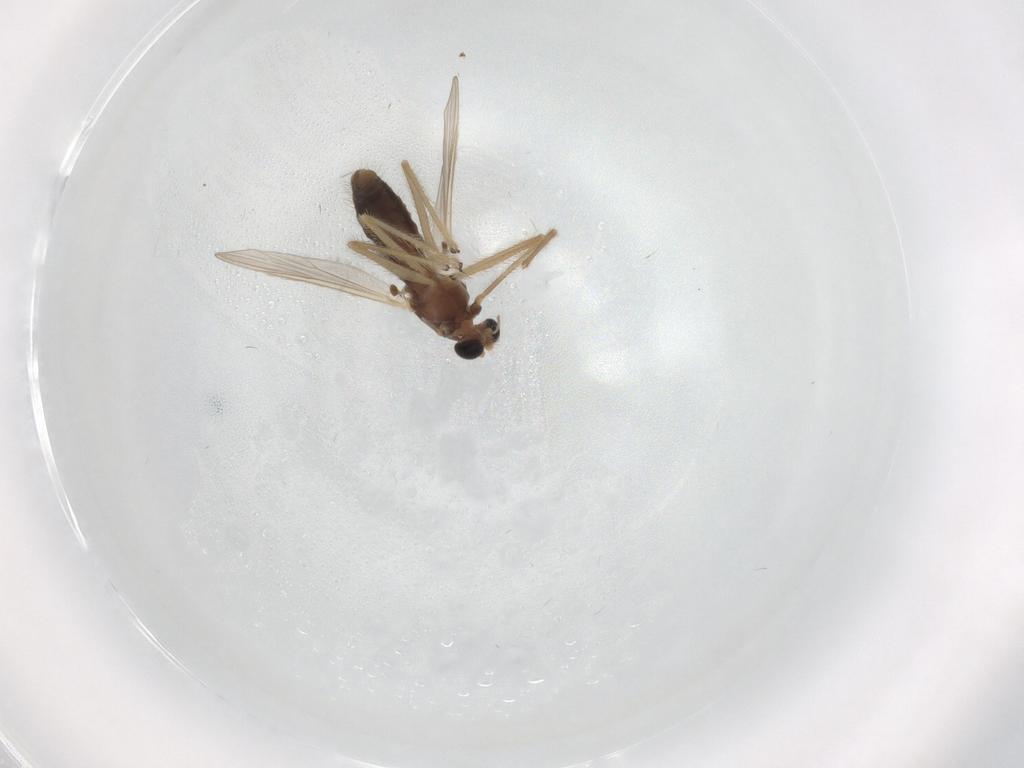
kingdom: Animalia
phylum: Arthropoda
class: Insecta
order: Diptera
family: Chironomidae
